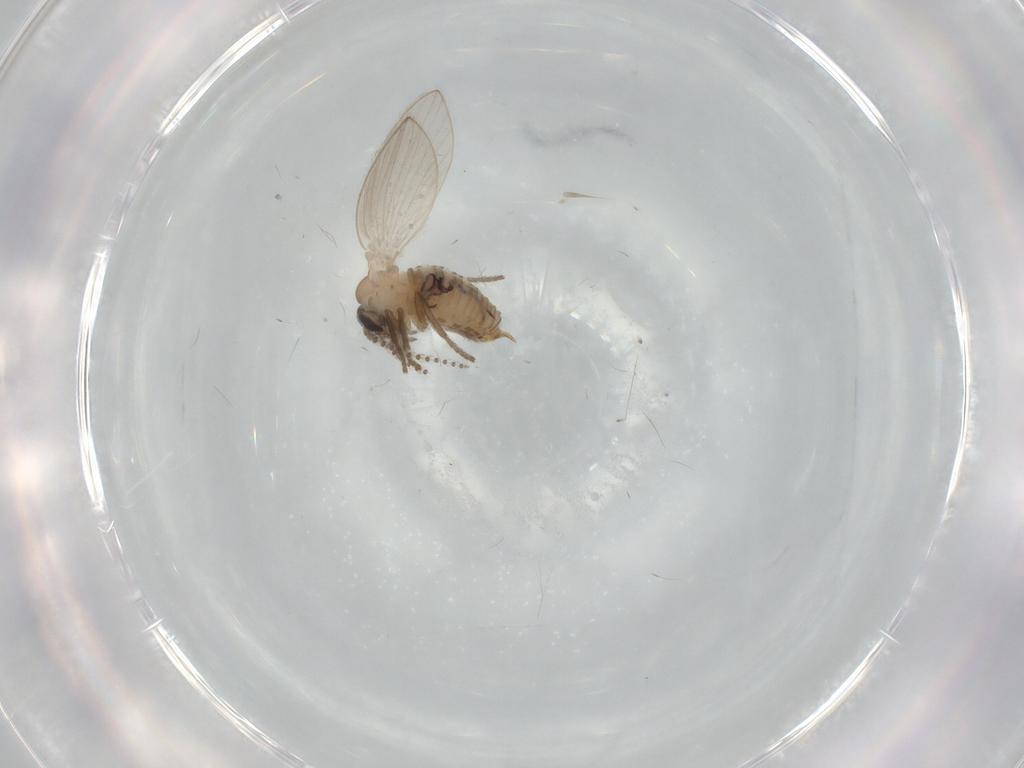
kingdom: Animalia
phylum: Arthropoda
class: Insecta
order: Diptera
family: Psychodidae
